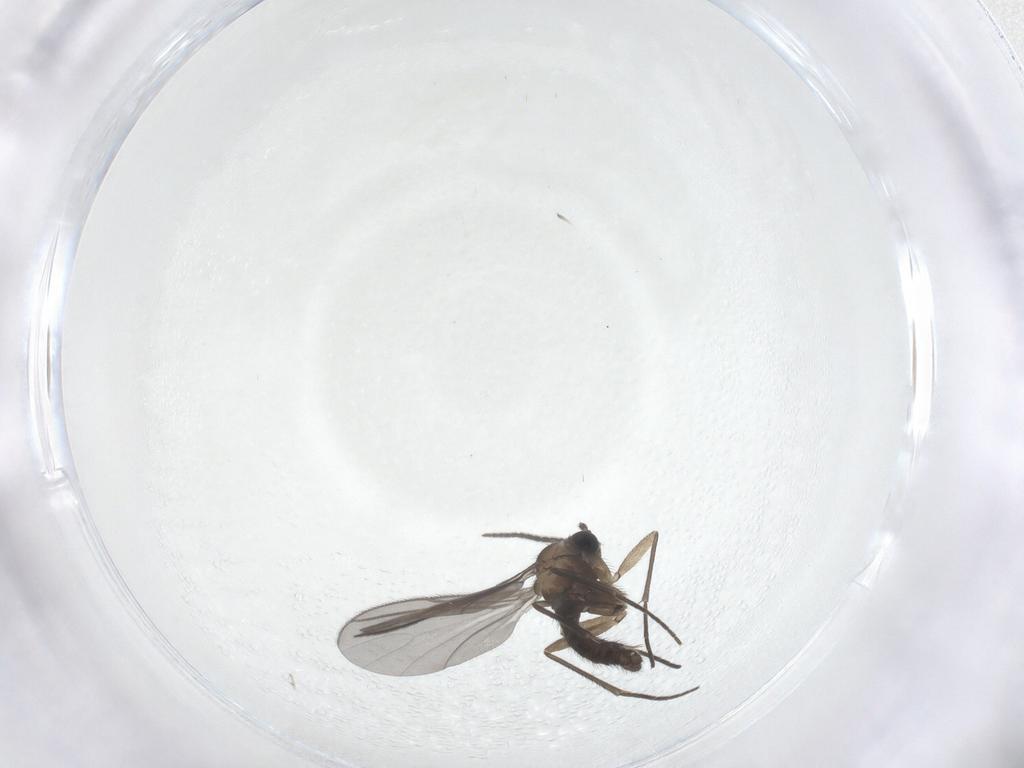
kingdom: Animalia
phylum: Arthropoda
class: Insecta
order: Diptera
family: Sciaridae
